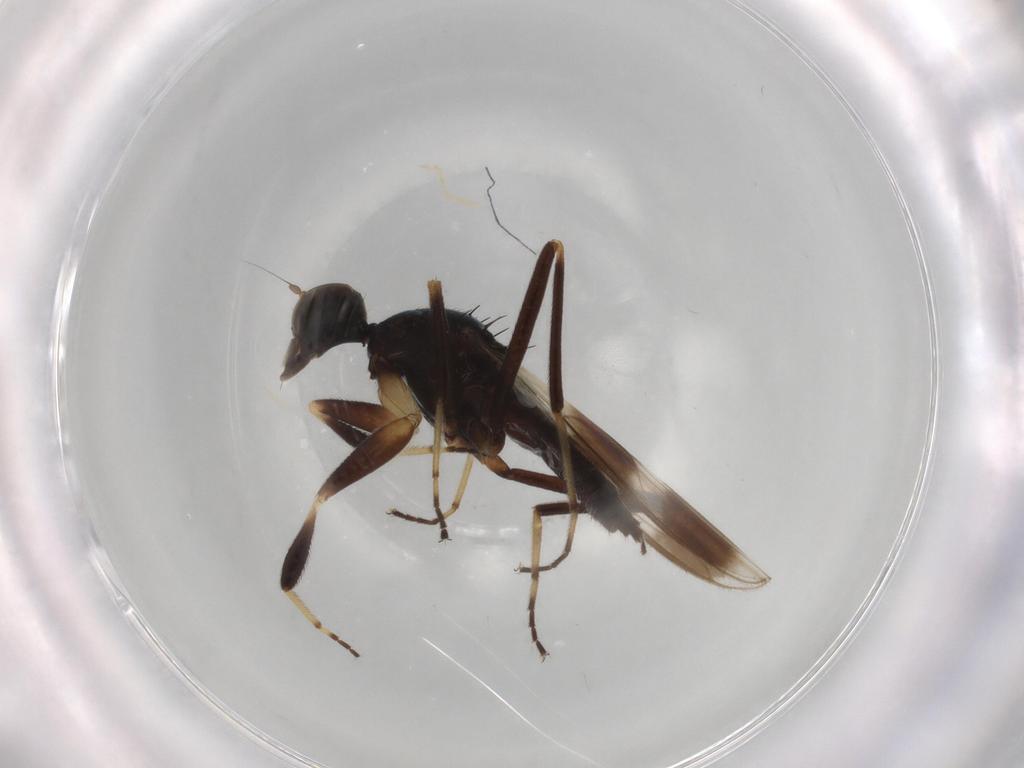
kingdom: Animalia
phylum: Arthropoda
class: Insecta
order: Diptera
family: Hybotidae
